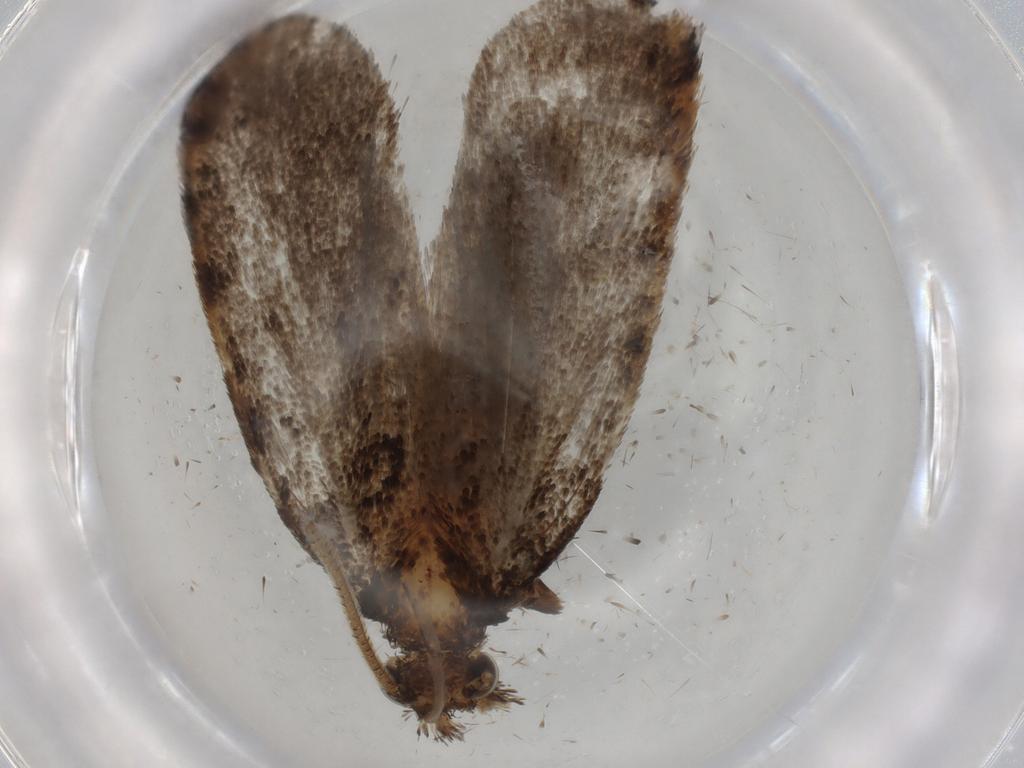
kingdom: Animalia
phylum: Arthropoda
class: Insecta
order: Lepidoptera
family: Tineidae
